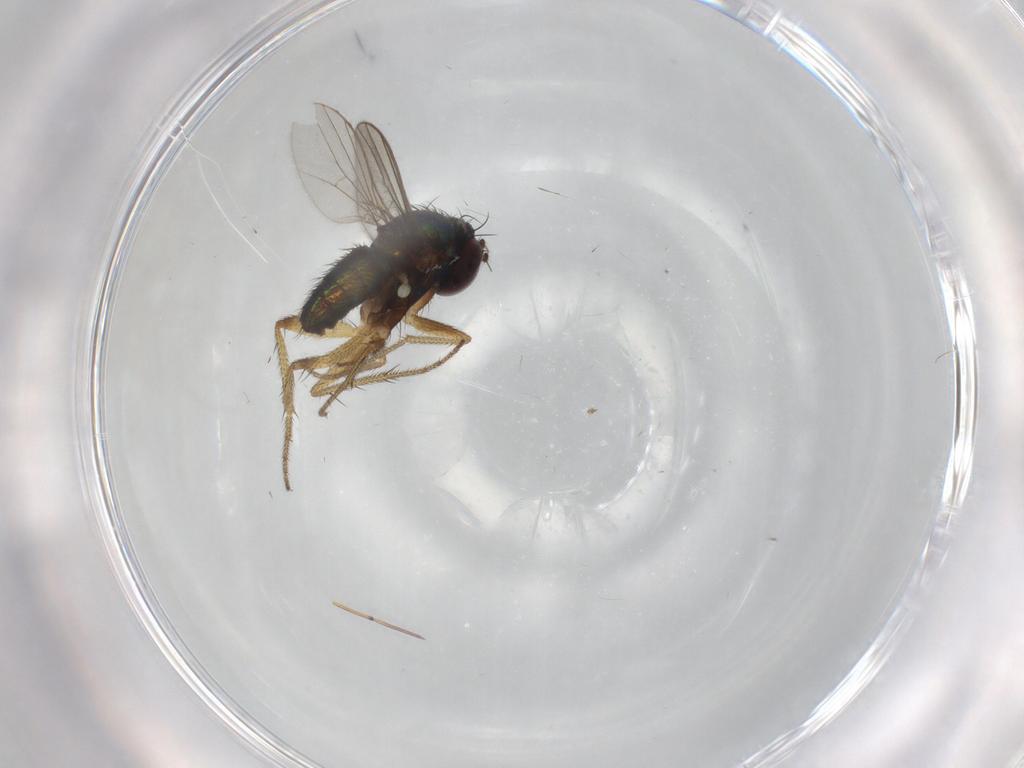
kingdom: Animalia
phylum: Arthropoda
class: Insecta
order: Diptera
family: Chironomidae
